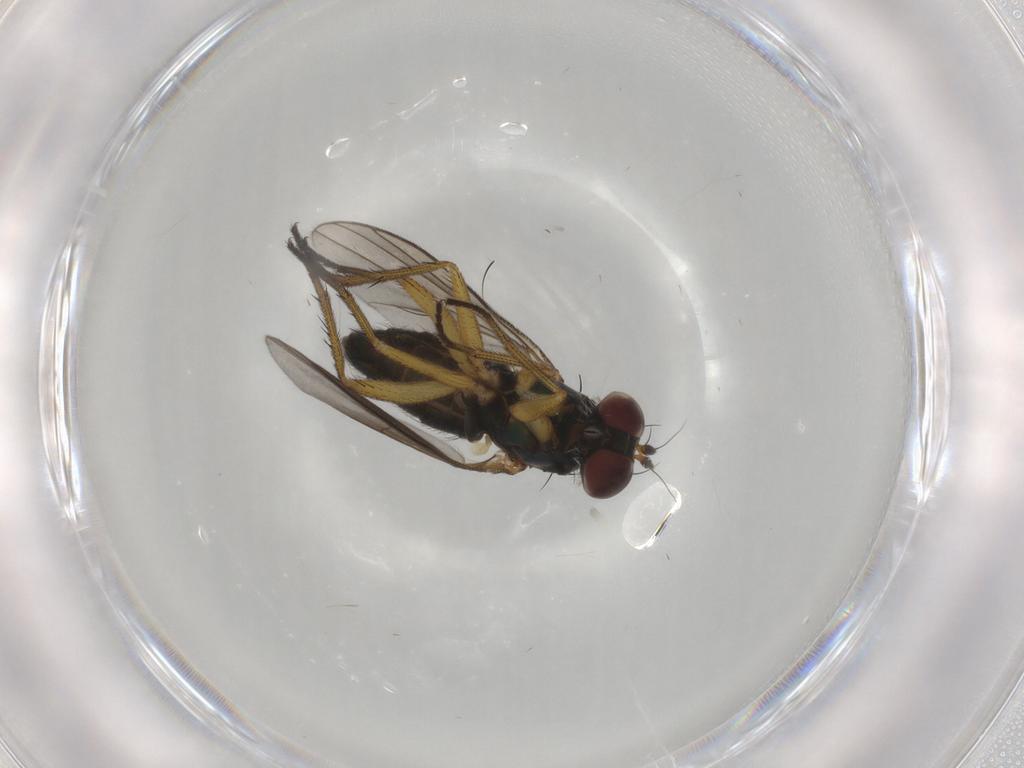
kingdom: Animalia
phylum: Arthropoda
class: Insecta
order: Diptera
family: Dolichopodidae
